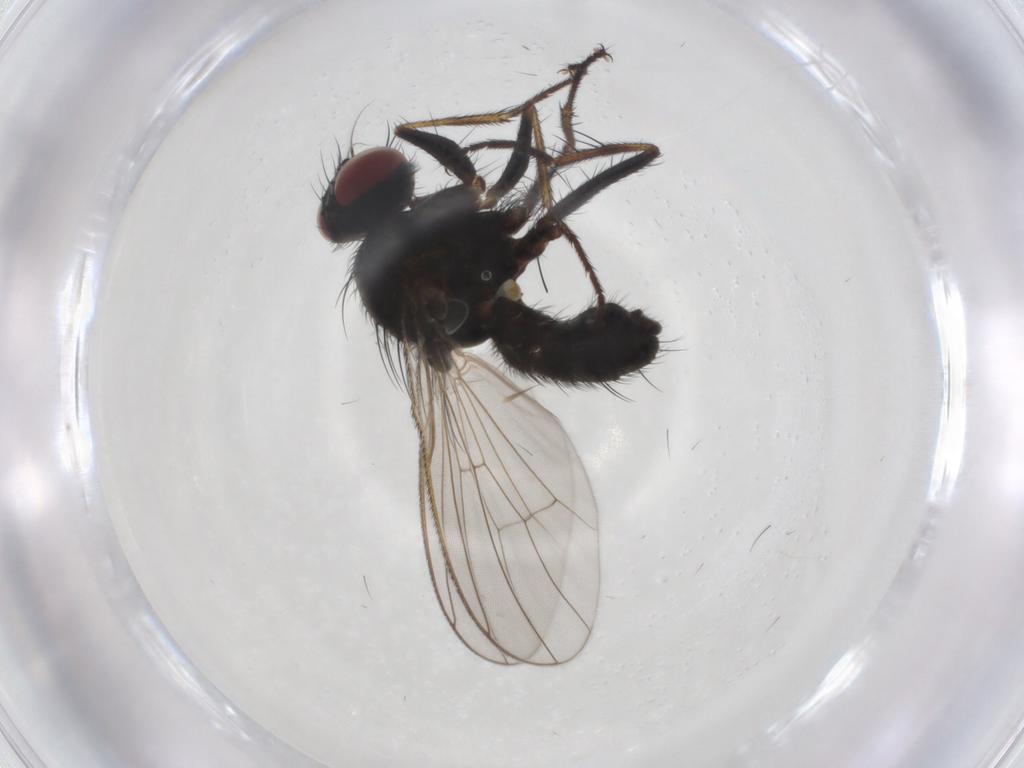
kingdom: Animalia
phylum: Arthropoda
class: Insecta
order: Diptera
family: Muscidae
